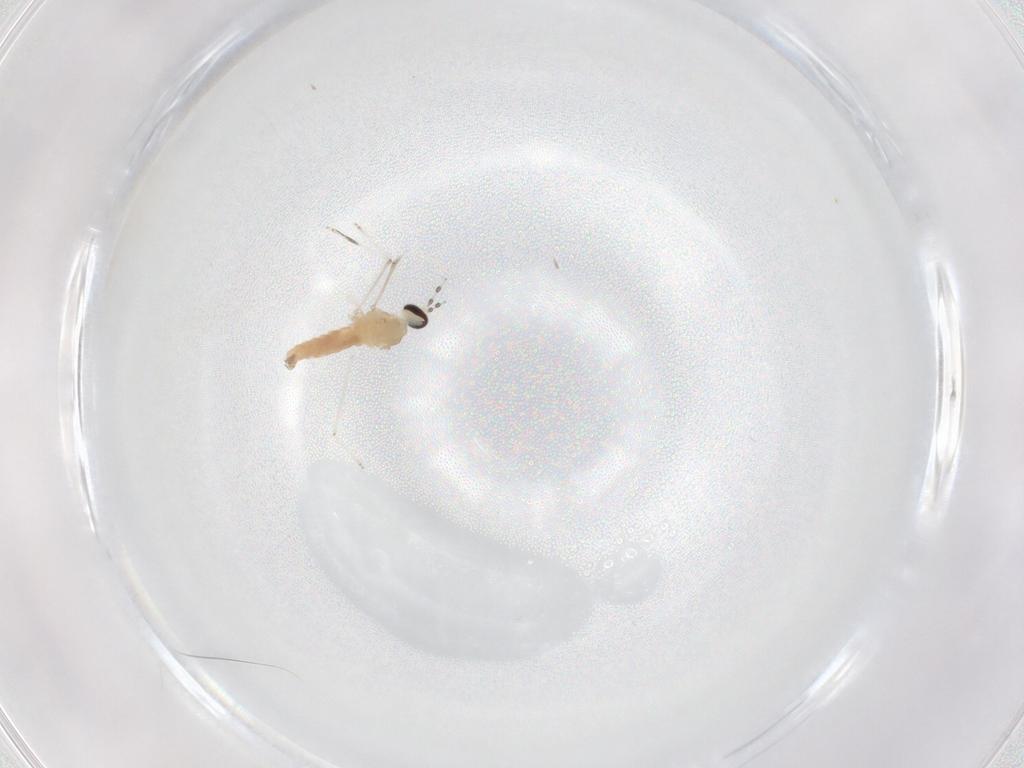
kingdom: Animalia
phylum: Arthropoda
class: Insecta
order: Diptera
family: Cecidomyiidae
